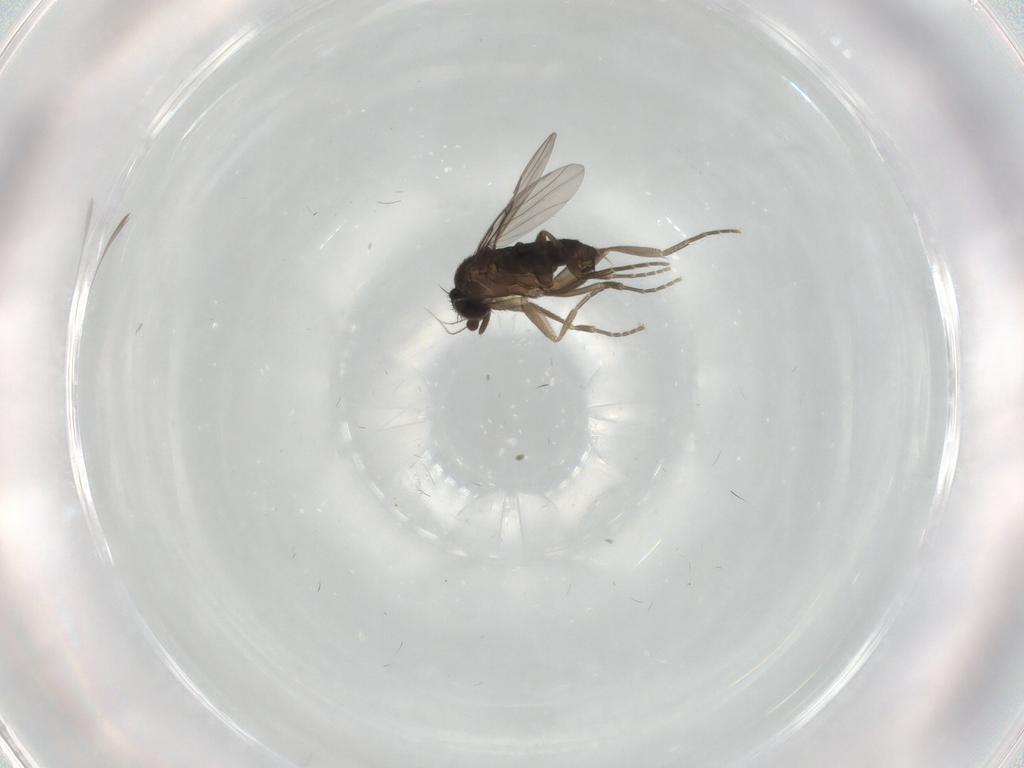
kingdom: Animalia
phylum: Arthropoda
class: Insecta
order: Diptera
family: Phoridae
